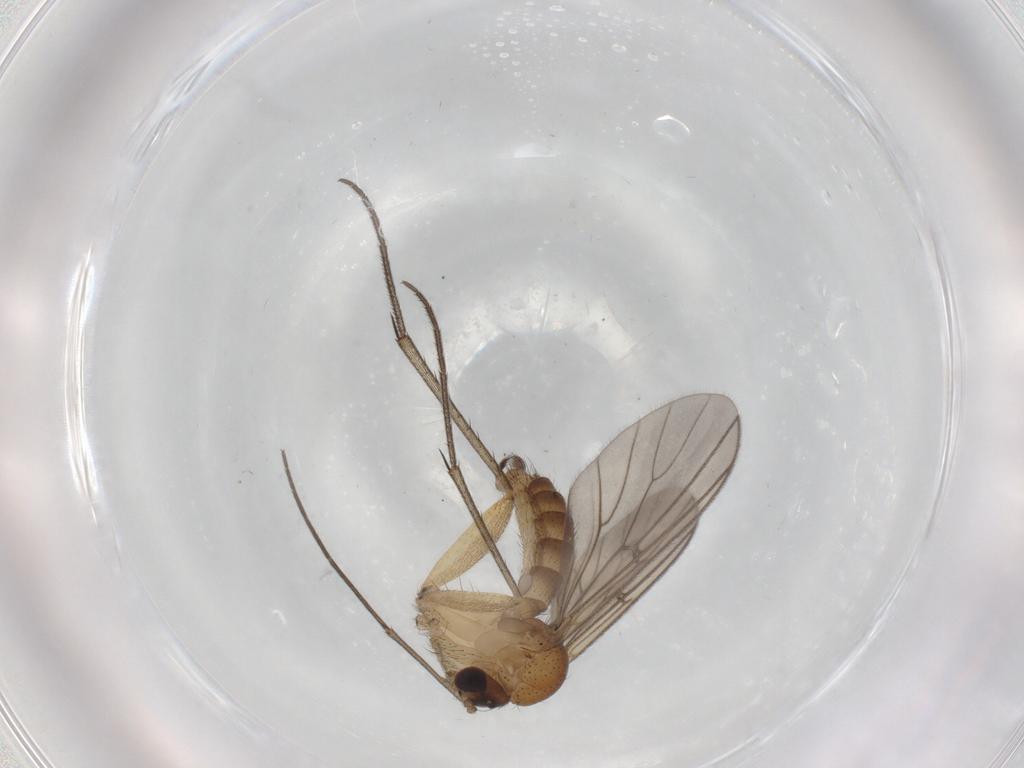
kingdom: Animalia
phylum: Arthropoda
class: Insecta
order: Diptera
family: Mycetophilidae
